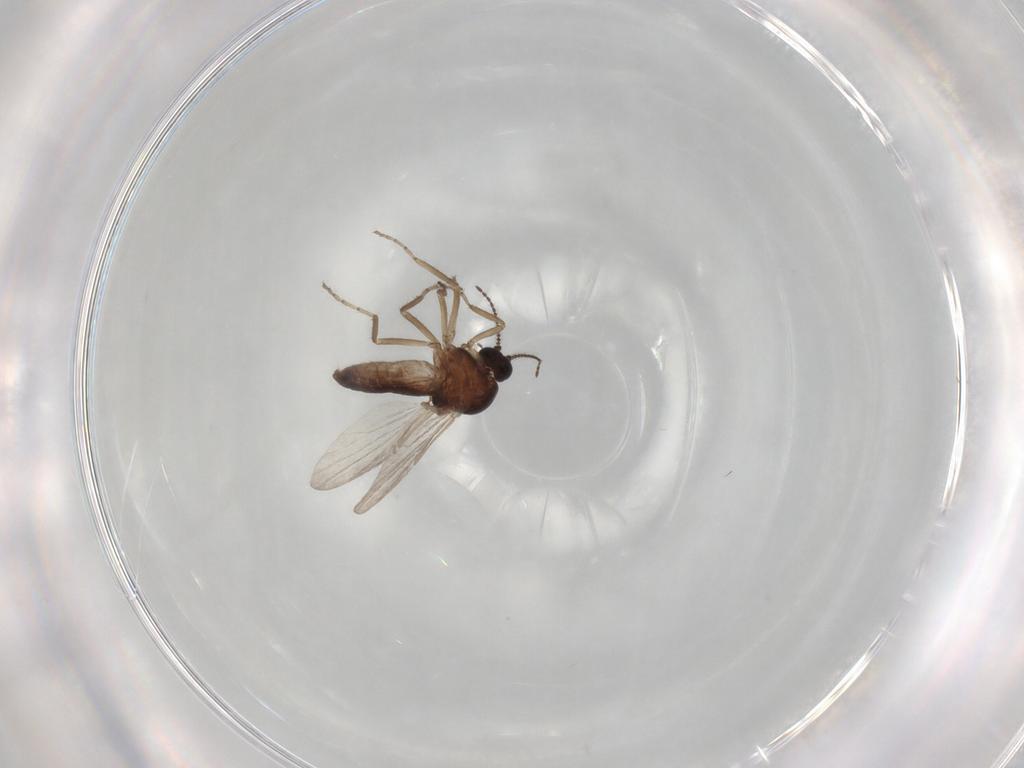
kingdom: Animalia
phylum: Arthropoda
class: Insecta
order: Diptera
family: Ceratopogonidae
